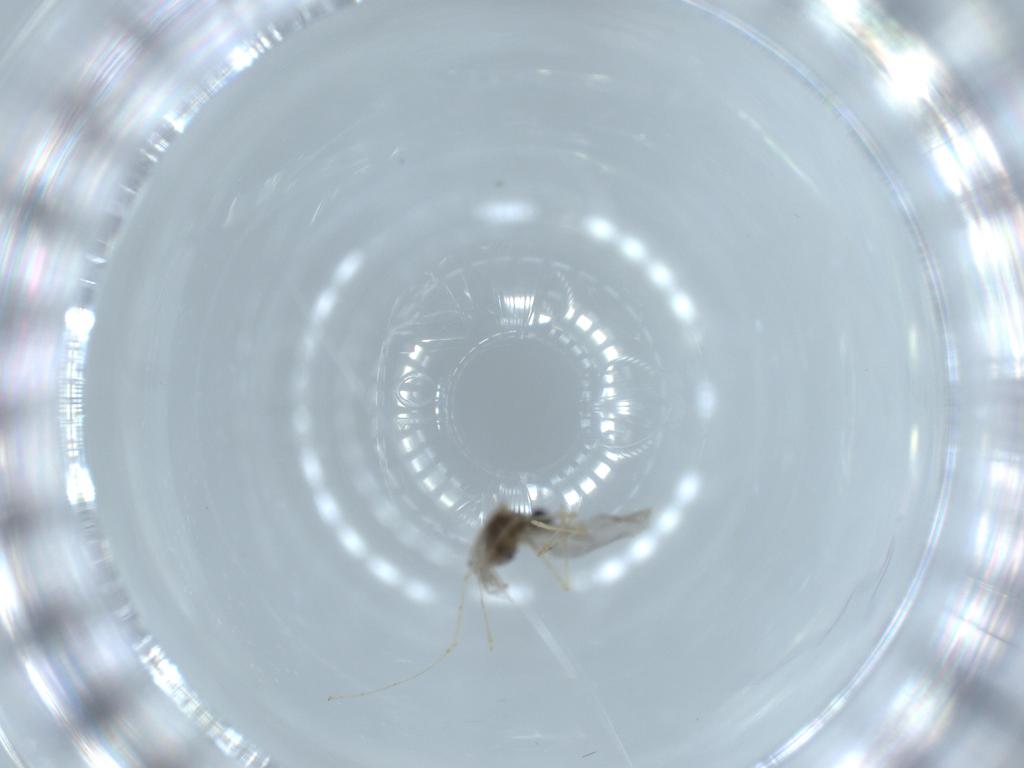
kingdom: Animalia
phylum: Arthropoda
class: Insecta
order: Diptera
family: Cecidomyiidae
